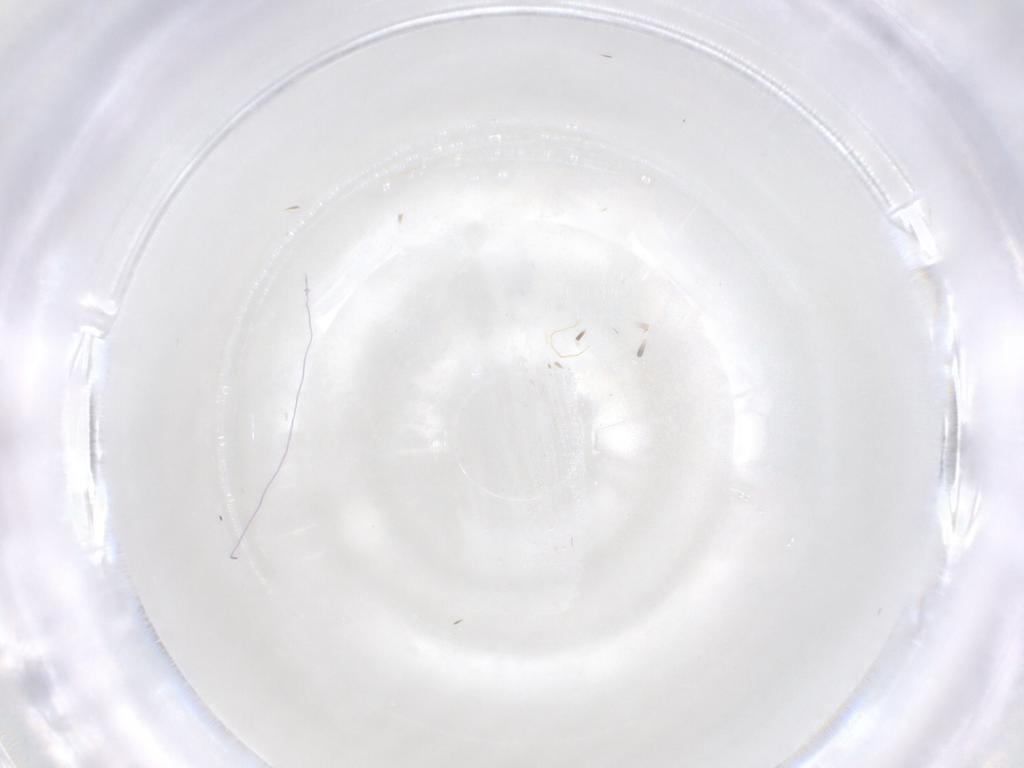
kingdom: Animalia
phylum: Arthropoda
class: Insecta
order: Diptera
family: Psychodidae
